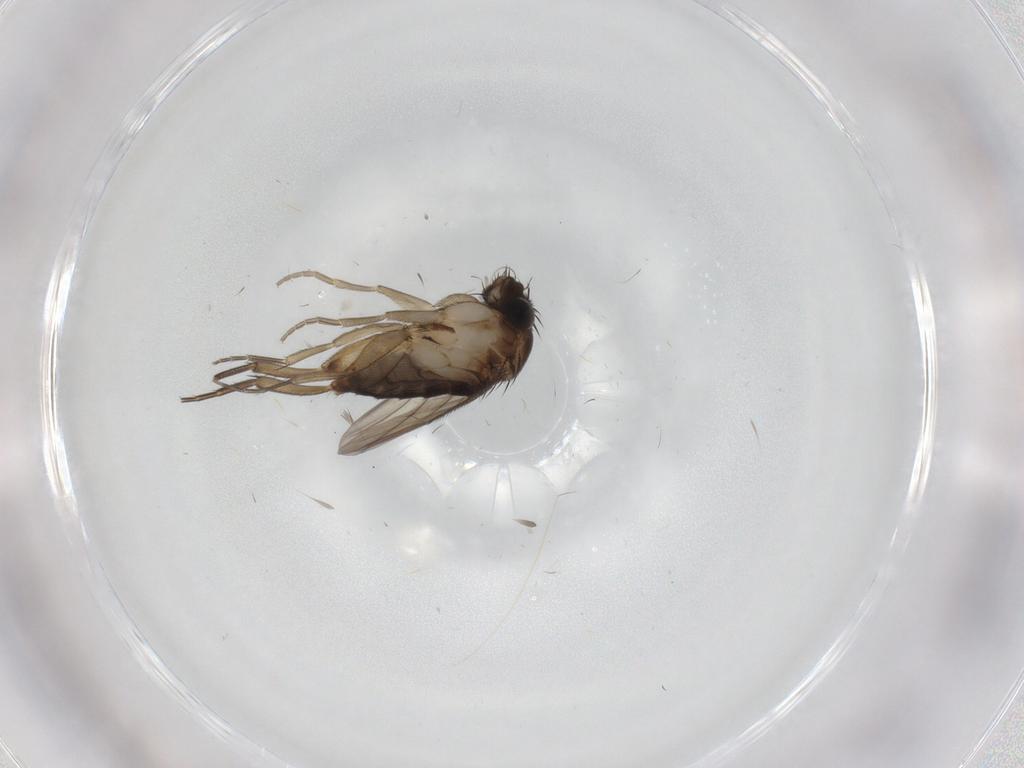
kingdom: Animalia
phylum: Arthropoda
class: Insecta
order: Diptera
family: Phoridae
